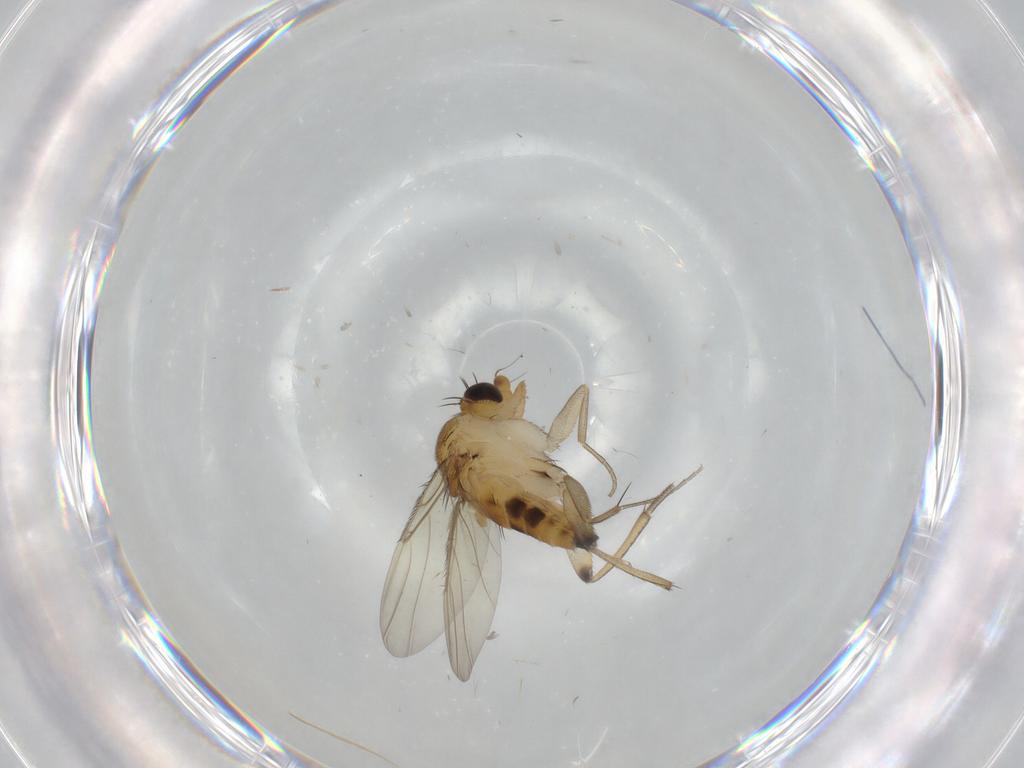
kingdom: Animalia
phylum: Arthropoda
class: Insecta
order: Diptera
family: Phoridae
